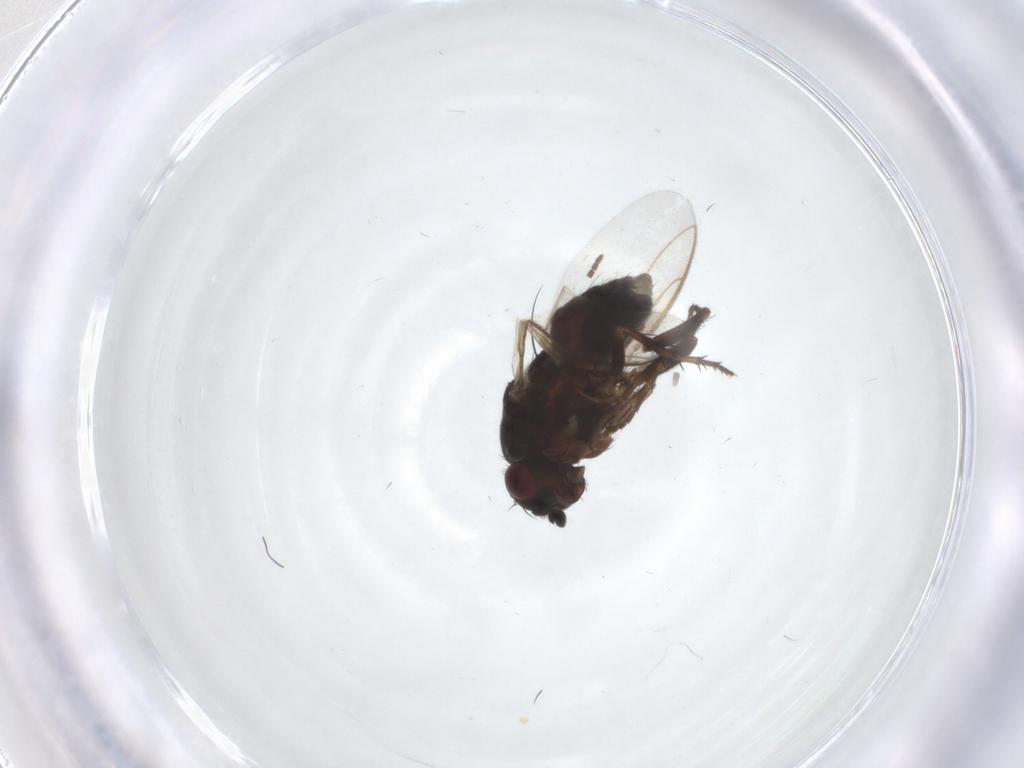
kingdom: Animalia
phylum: Arthropoda
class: Insecta
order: Diptera
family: Sphaeroceridae
